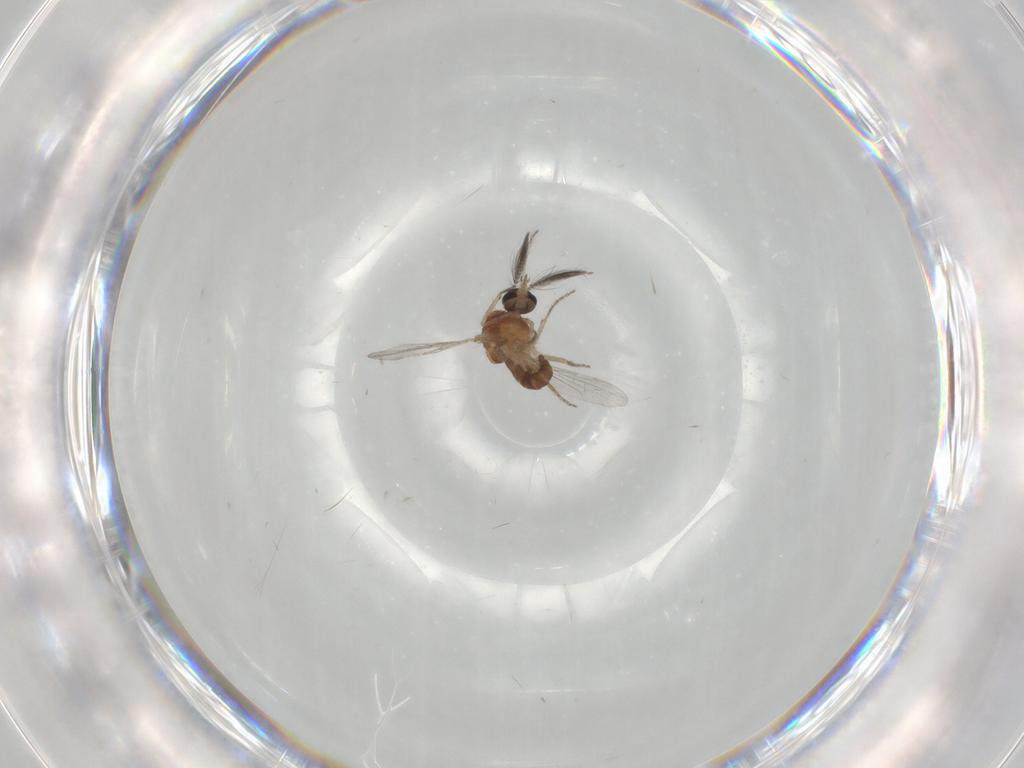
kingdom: Animalia
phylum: Arthropoda
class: Insecta
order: Diptera
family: Ceratopogonidae
